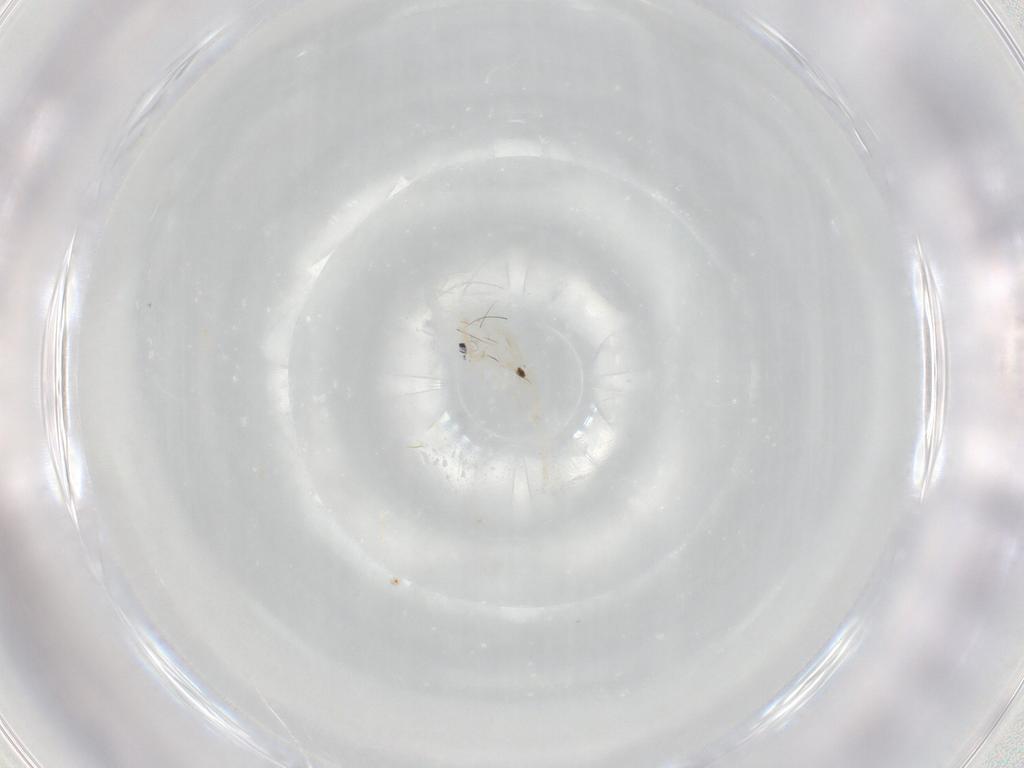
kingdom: Animalia
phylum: Arthropoda
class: Collembola
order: Entomobryomorpha
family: Entomobryidae
